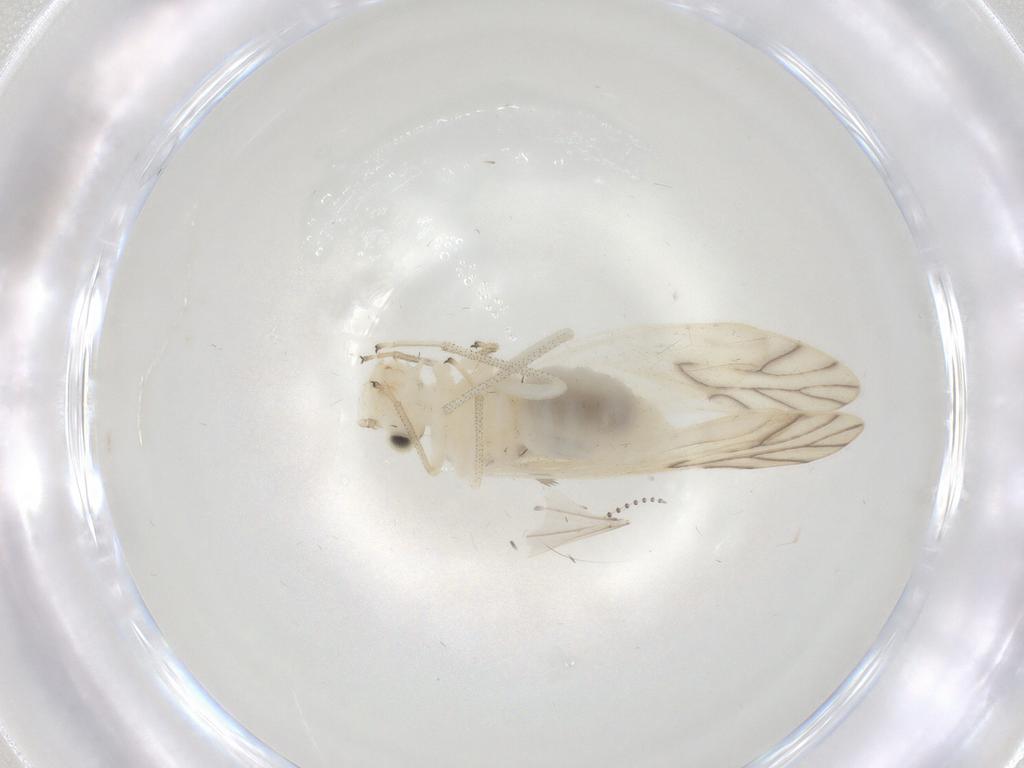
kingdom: Animalia
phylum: Arthropoda
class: Insecta
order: Psocodea
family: Caeciliusidae
